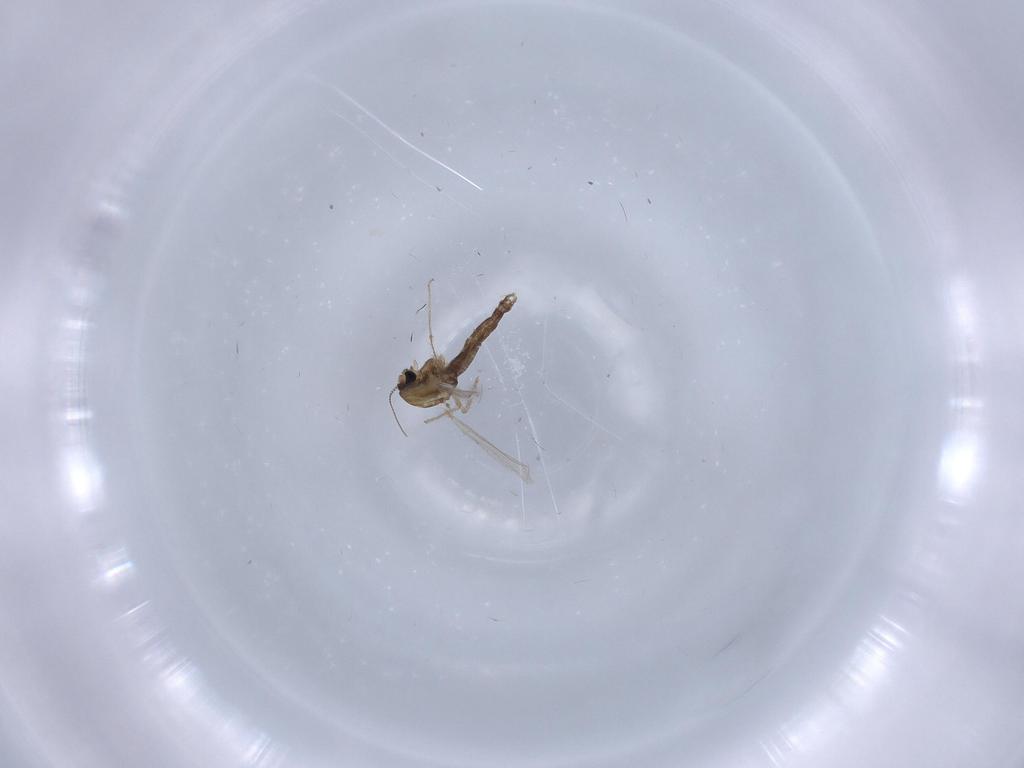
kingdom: Animalia
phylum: Arthropoda
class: Insecta
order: Diptera
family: Chironomidae
